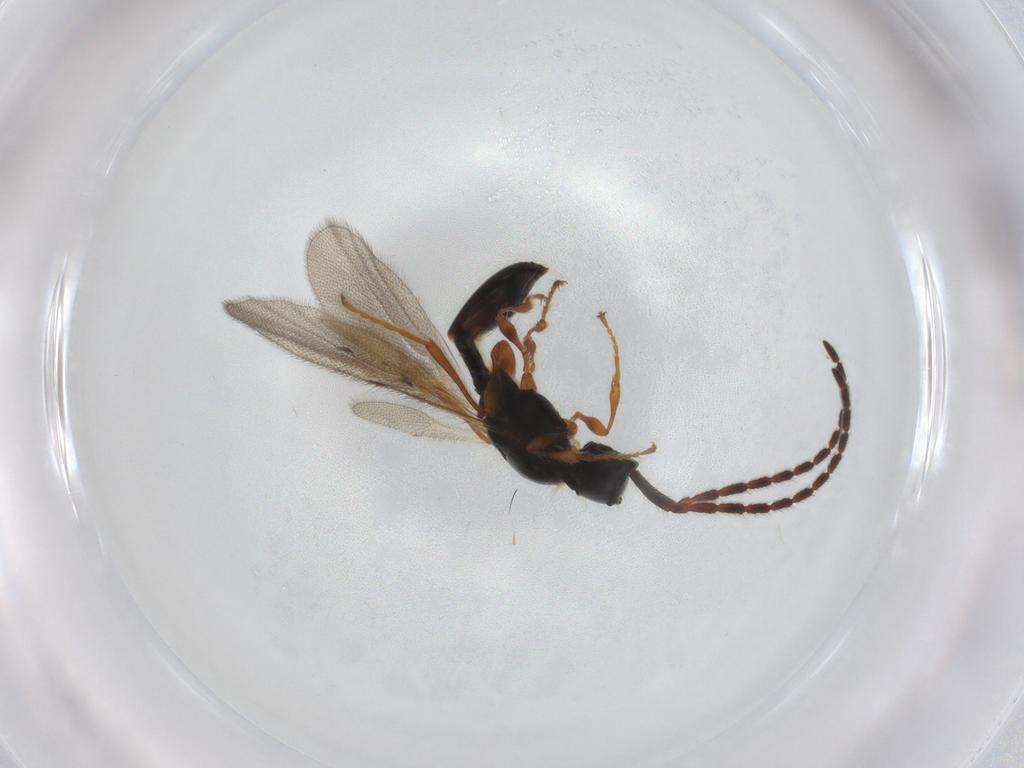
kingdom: Animalia
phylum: Arthropoda
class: Insecta
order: Hymenoptera
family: Diapriidae
